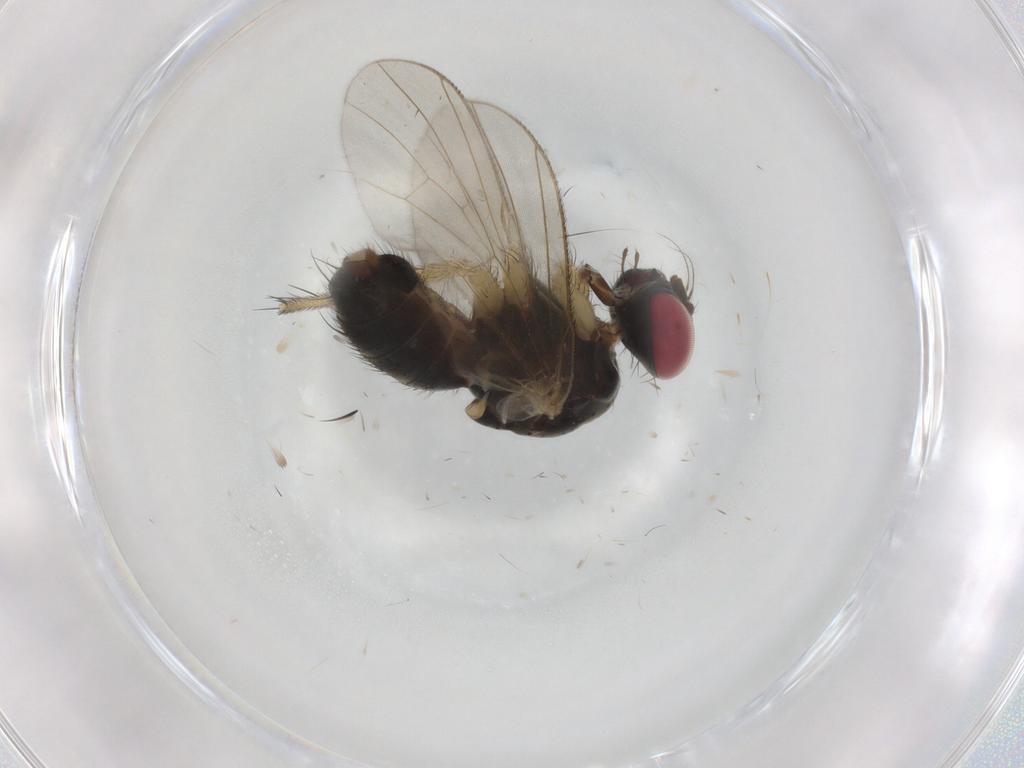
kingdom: Animalia
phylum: Arthropoda
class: Insecta
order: Diptera
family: Muscidae
